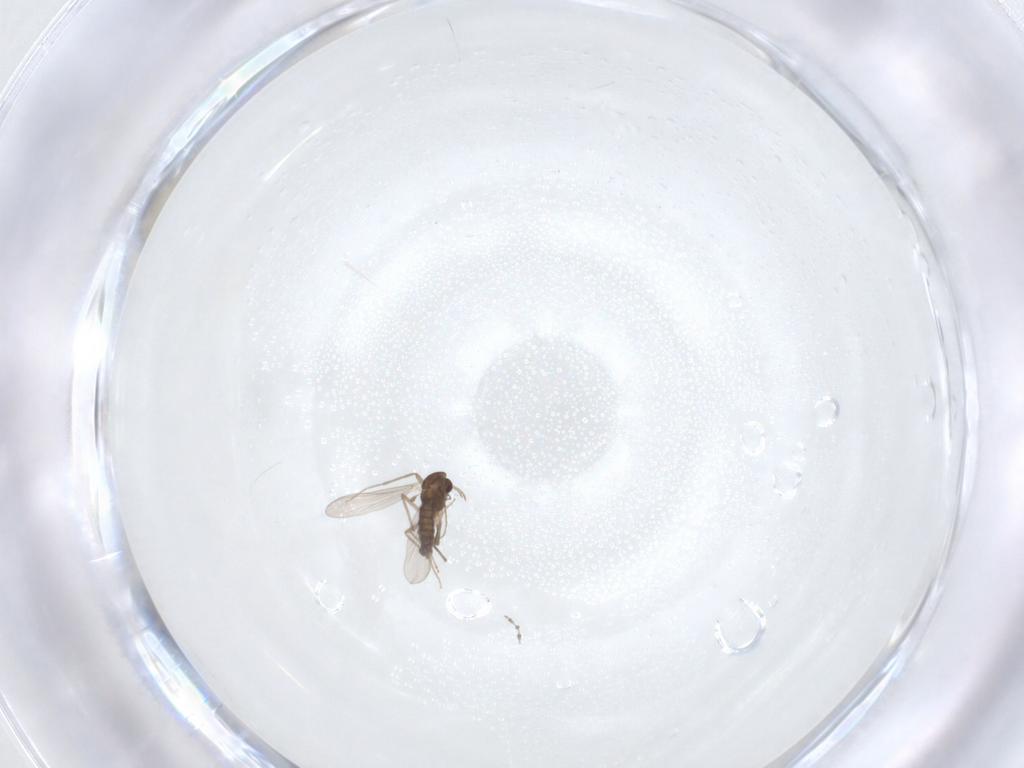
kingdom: Animalia
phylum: Arthropoda
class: Insecta
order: Diptera
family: Chironomidae
